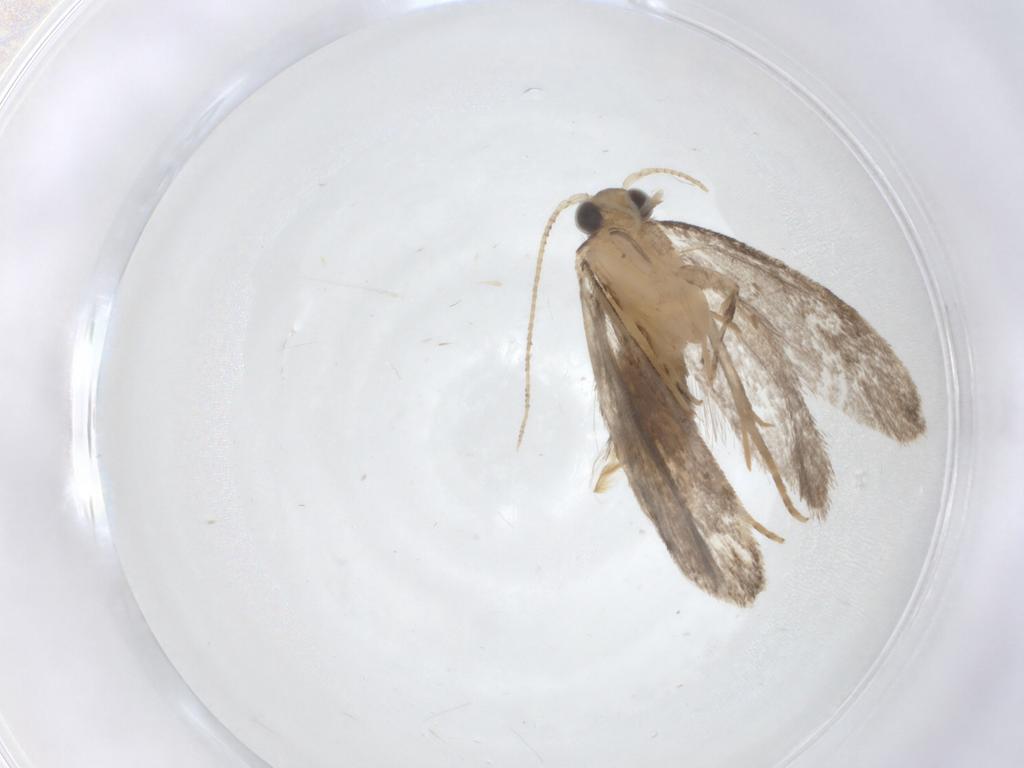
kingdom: Animalia
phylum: Arthropoda
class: Insecta
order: Lepidoptera
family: Tineidae
